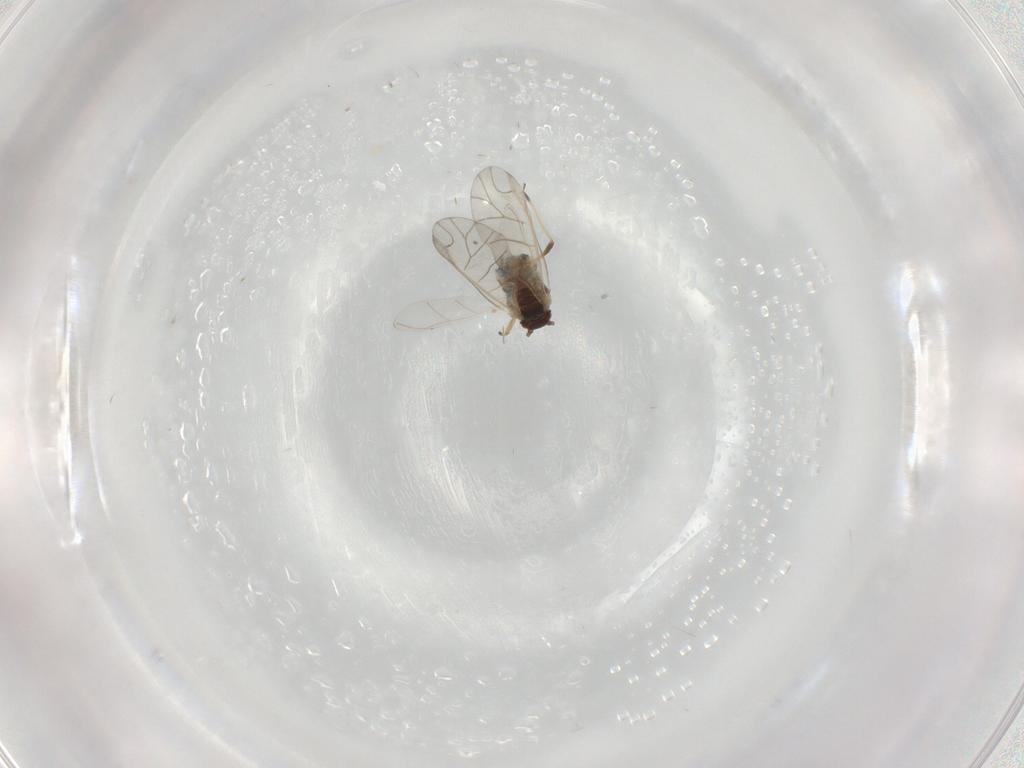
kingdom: Animalia
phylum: Arthropoda
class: Insecta
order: Hemiptera
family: Aphididae
